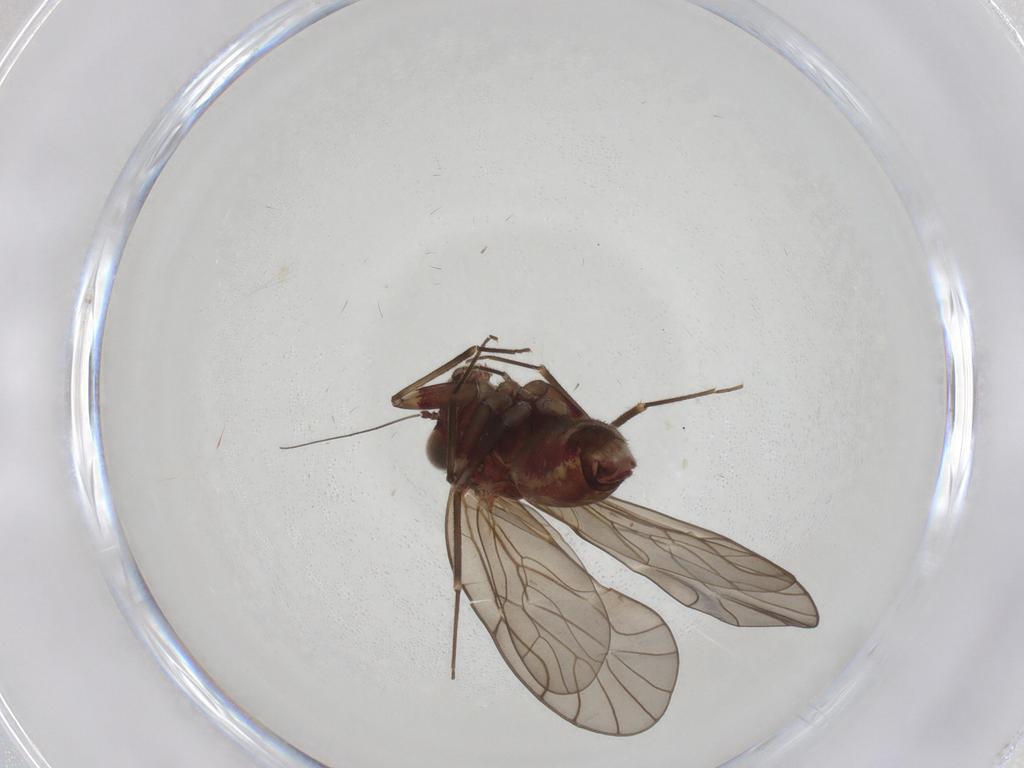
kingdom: Animalia
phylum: Arthropoda
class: Insecta
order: Psocodea
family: Philotarsidae
